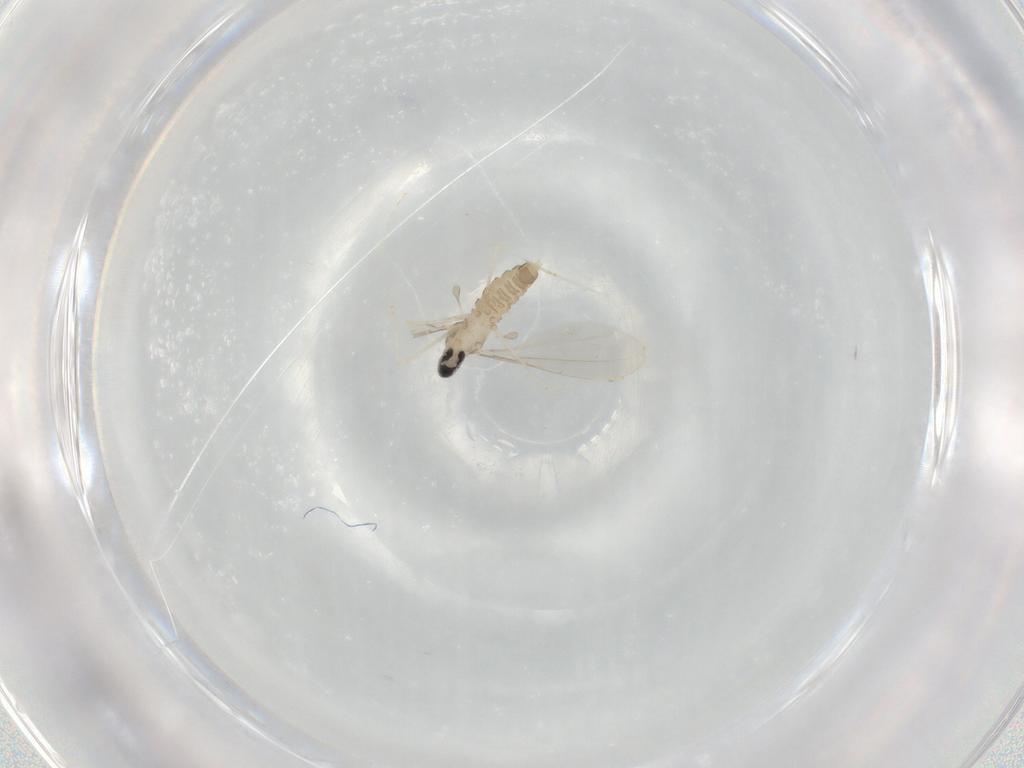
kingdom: Animalia
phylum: Arthropoda
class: Insecta
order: Diptera
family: Cecidomyiidae
